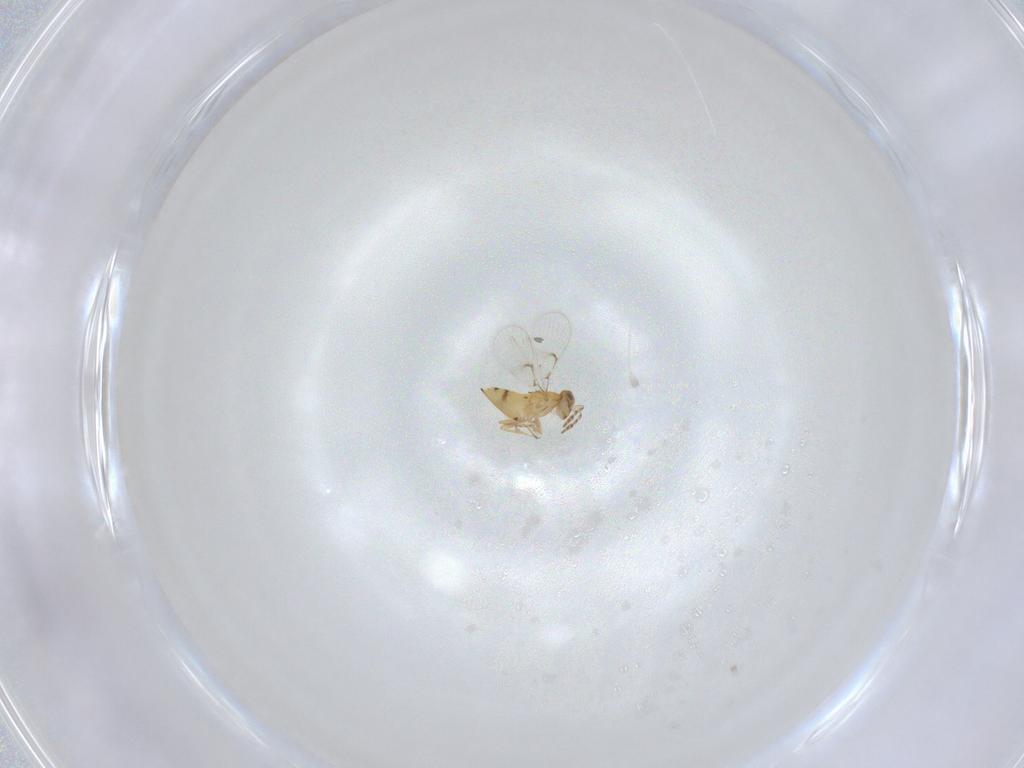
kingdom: Animalia
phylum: Arthropoda
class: Insecta
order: Hymenoptera
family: Trichogrammatidae
